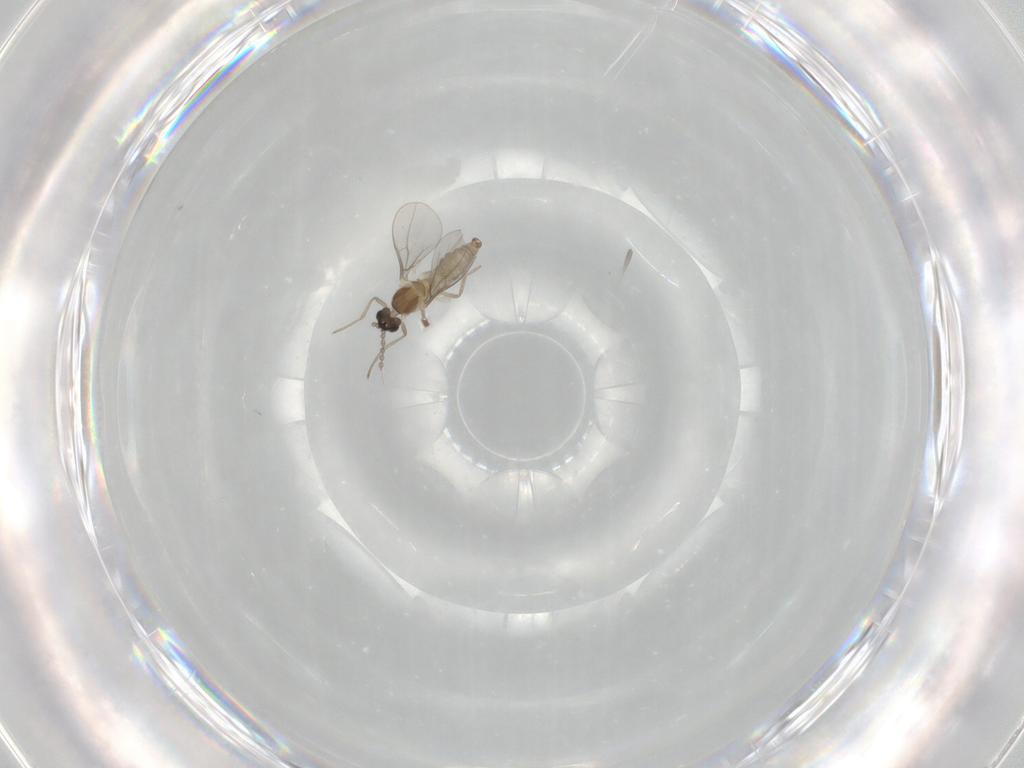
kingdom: Animalia
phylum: Arthropoda
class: Insecta
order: Diptera
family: Cecidomyiidae
